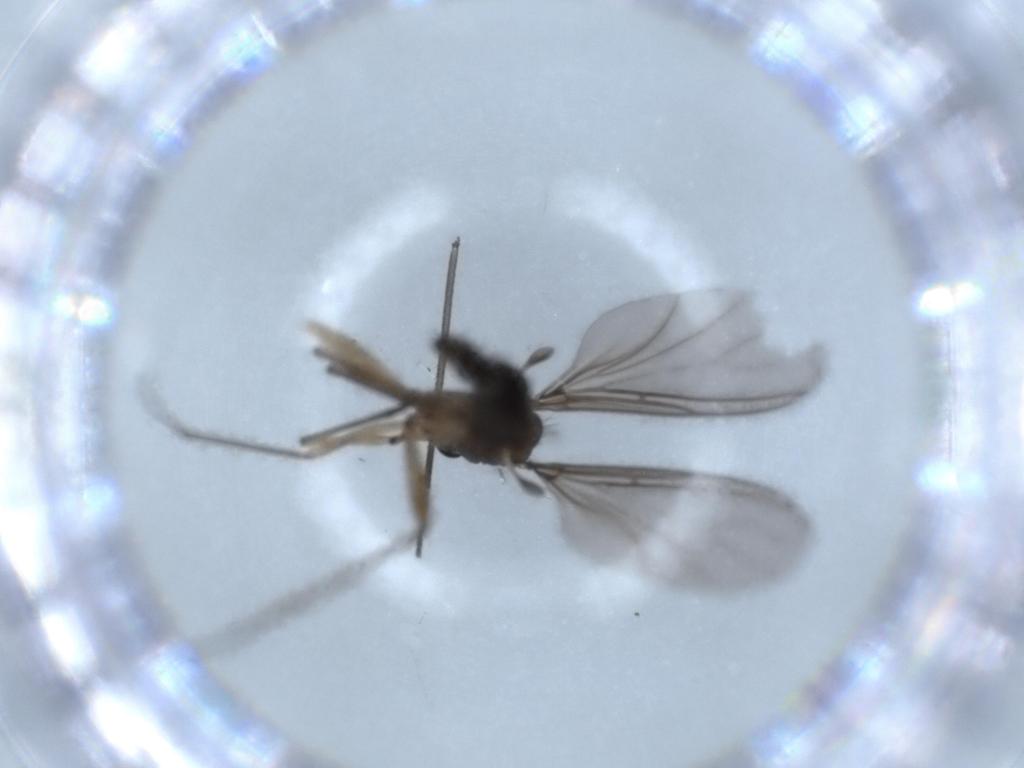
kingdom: Animalia
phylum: Arthropoda
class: Insecta
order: Diptera
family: Sciaridae
